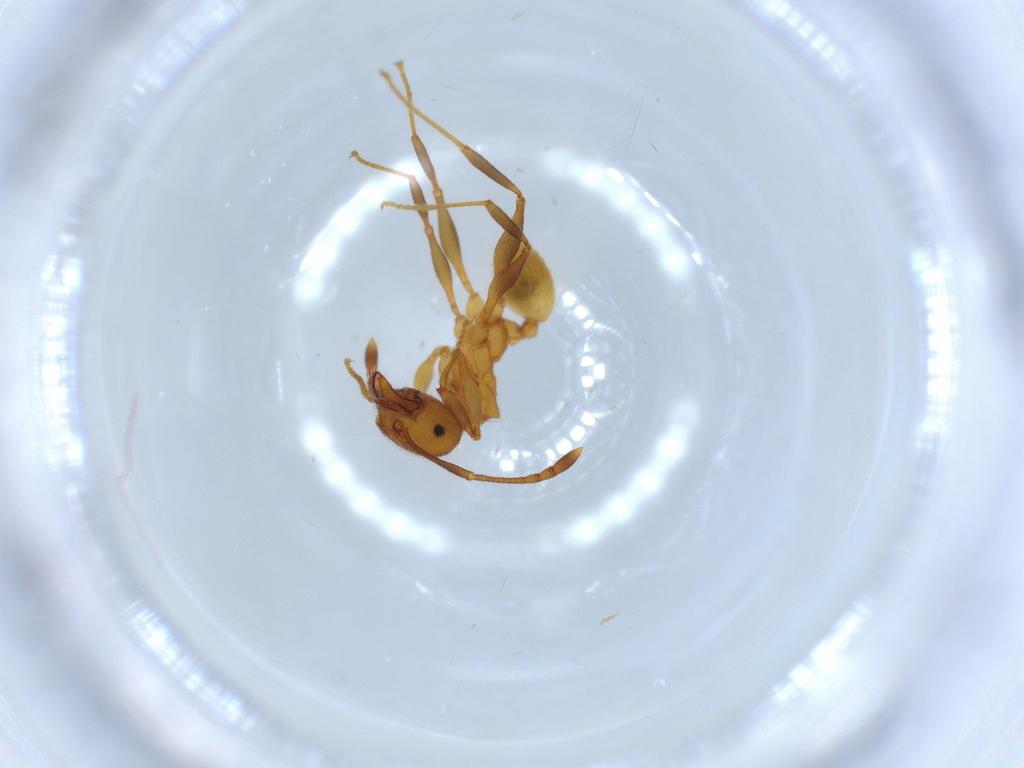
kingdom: Animalia
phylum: Arthropoda
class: Insecta
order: Hymenoptera
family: Formicidae
